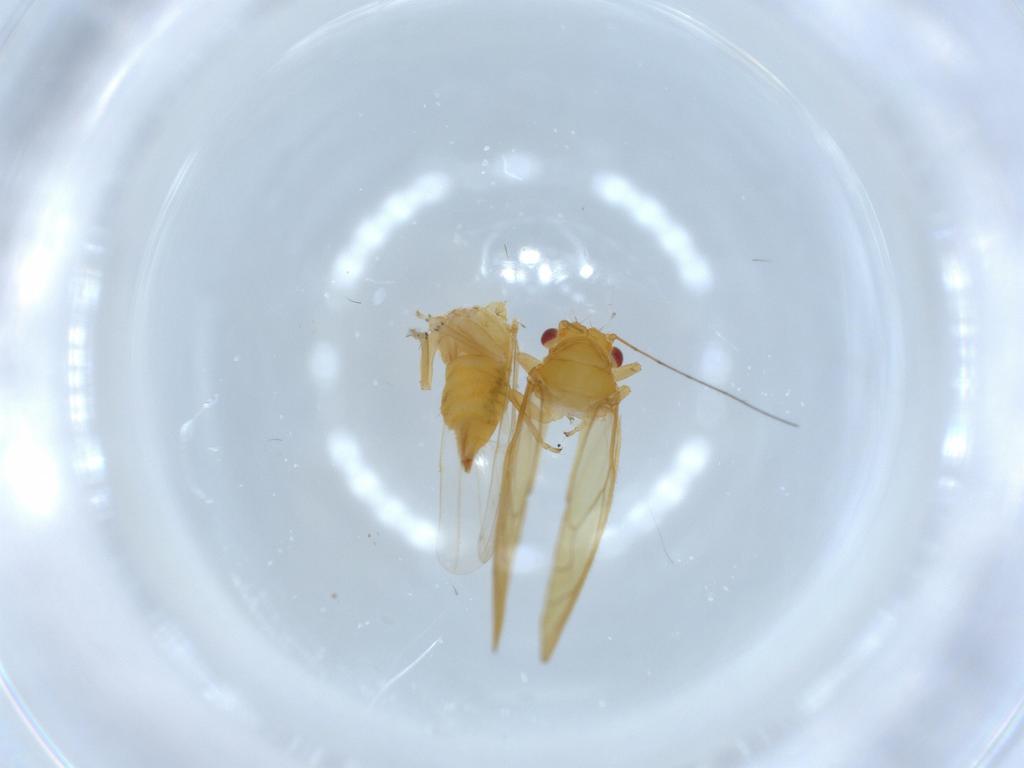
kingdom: Animalia
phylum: Arthropoda
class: Insecta
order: Hemiptera
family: Psyllidae
